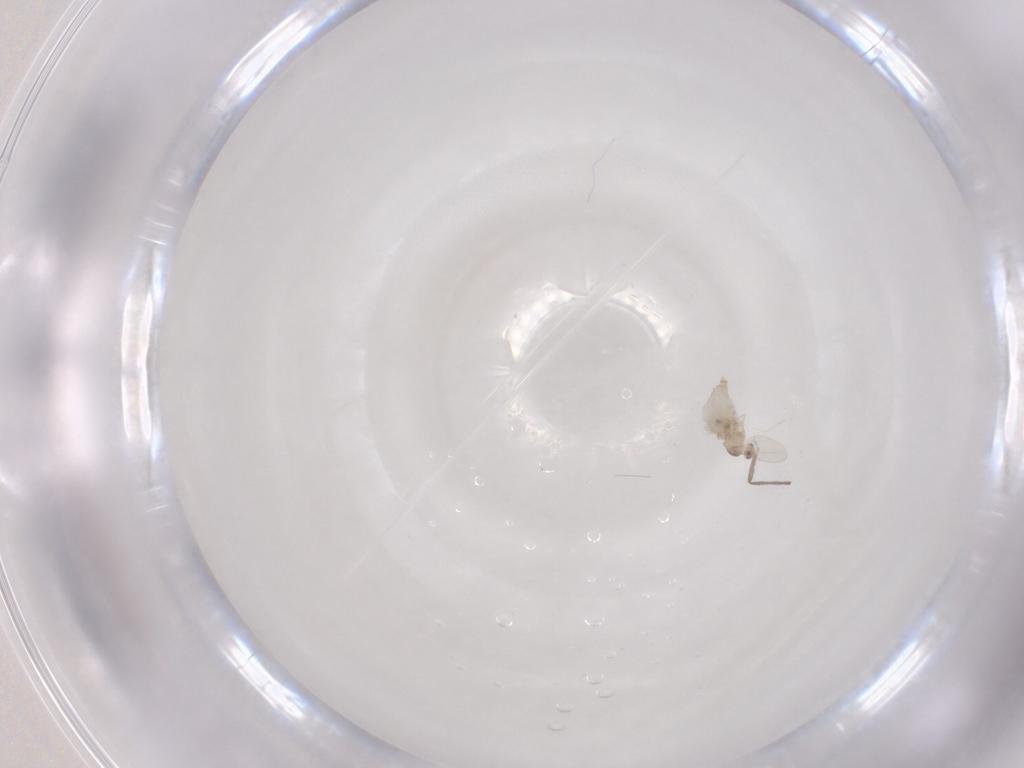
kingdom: Animalia
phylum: Arthropoda
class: Insecta
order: Diptera
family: Cecidomyiidae
